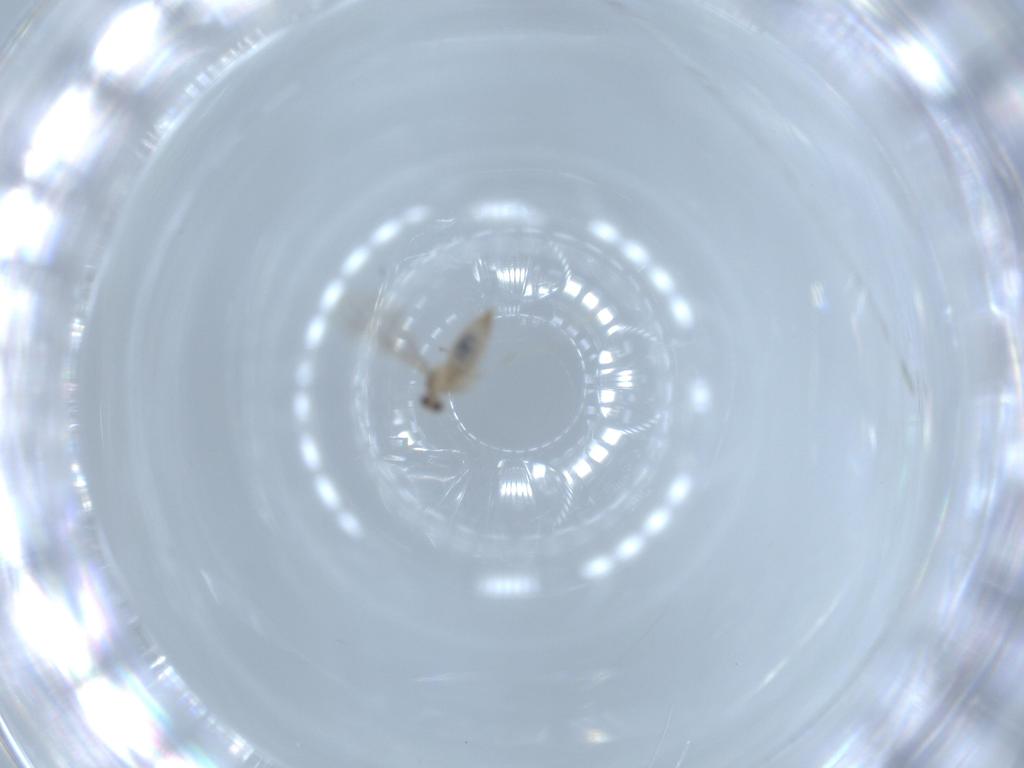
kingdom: Animalia
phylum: Arthropoda
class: Insecta
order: Diptera
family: Cecidomyiidae
